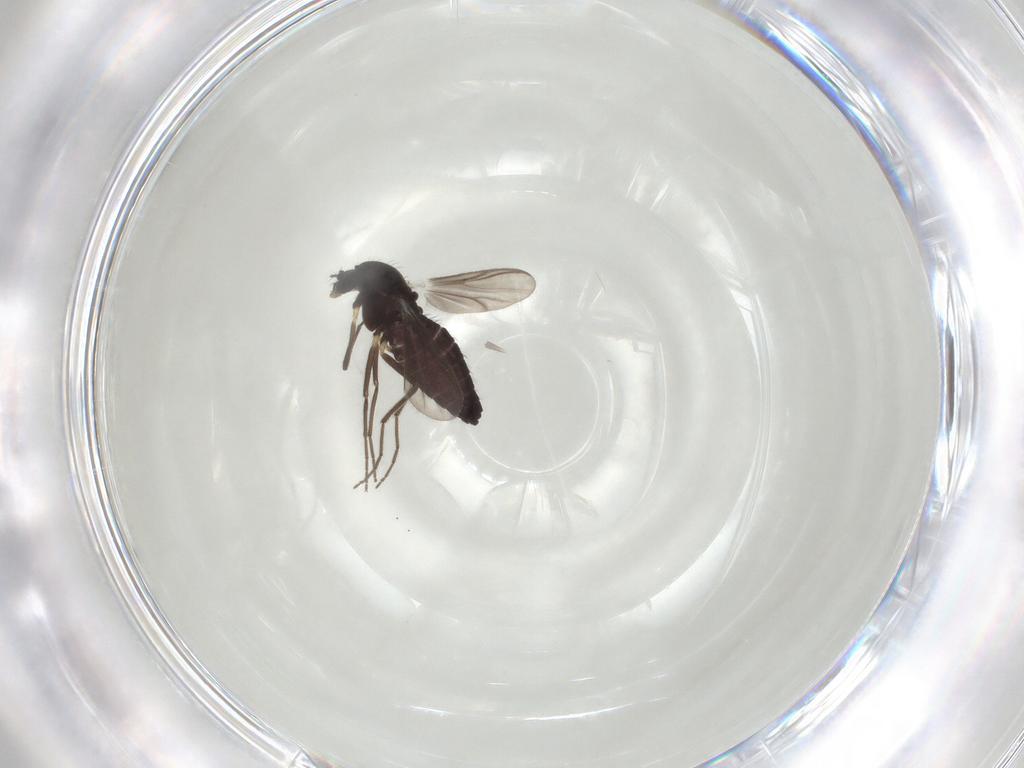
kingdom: Animalia
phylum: Arthropoda
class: Insecta
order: Diptera
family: Chironomidae
